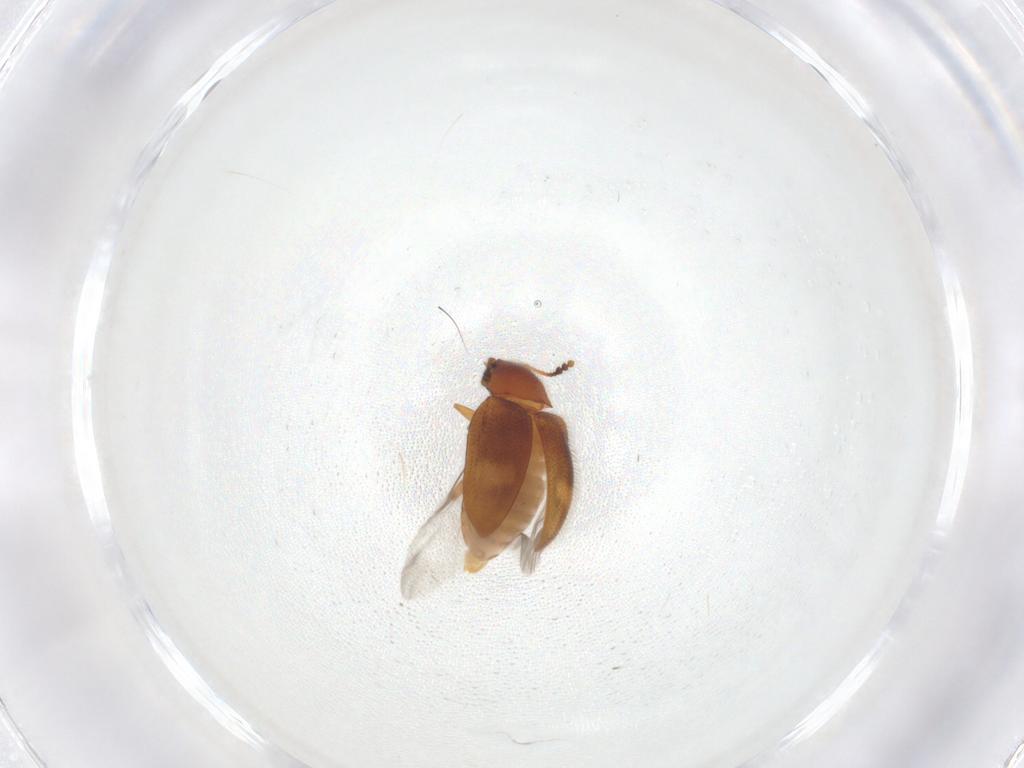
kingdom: Animalia
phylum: Arthropoda
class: Insecta
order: Coleoptera
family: Erotylidae
